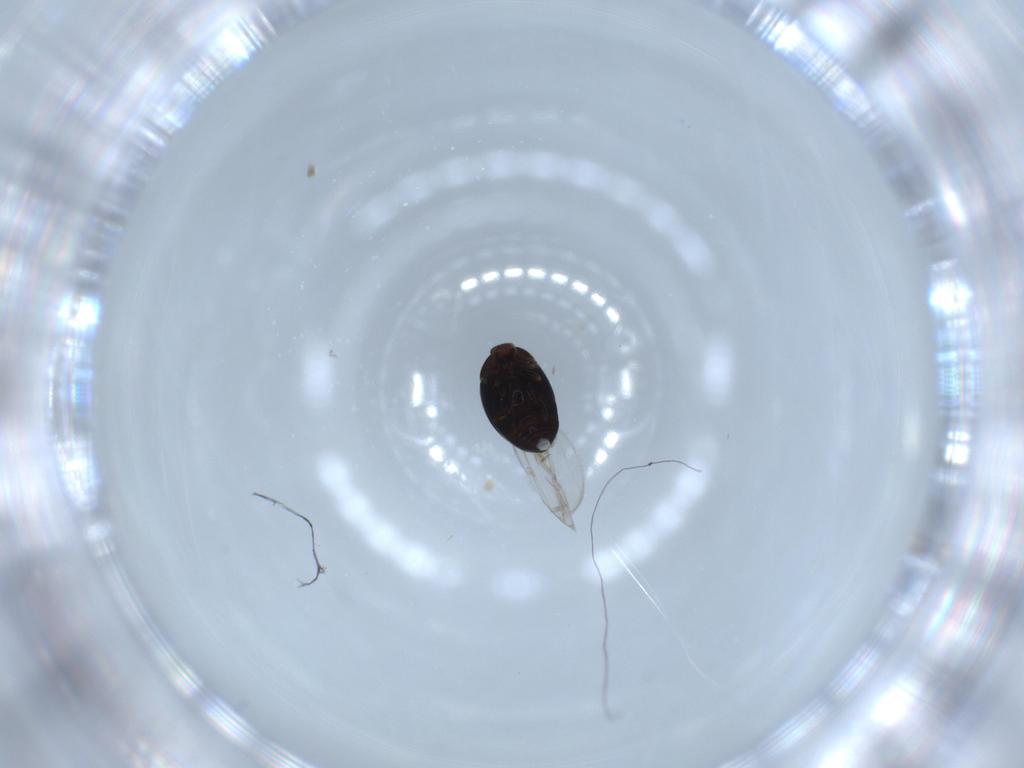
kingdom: Animalia
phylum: Arthropoda
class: Insecta
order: Coleoptera
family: Corylophidae
